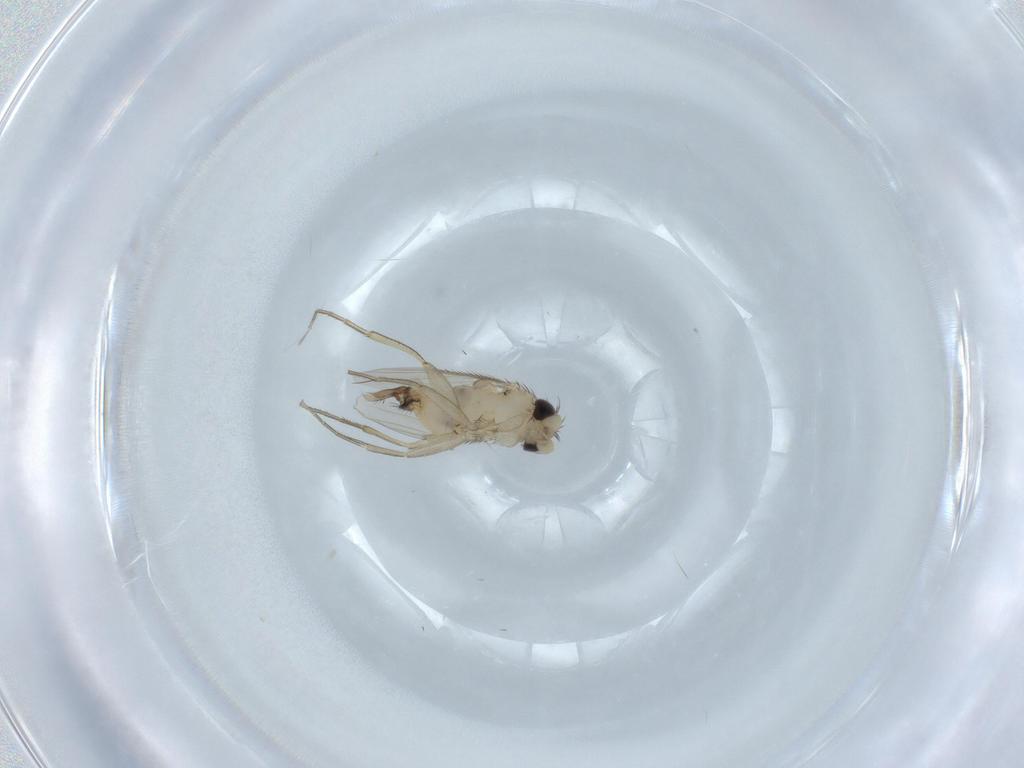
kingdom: Animalia
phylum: Arthropoda
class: Insecta
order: Diptera
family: Phoridae
